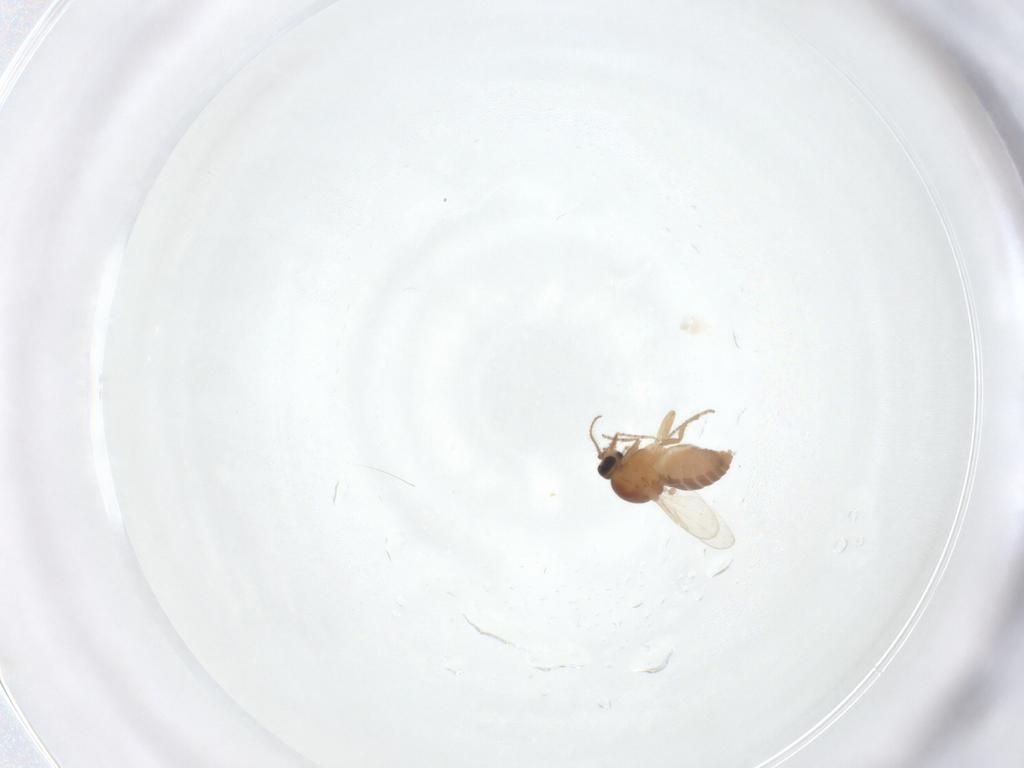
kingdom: Animalia
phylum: Arthropoda
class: Insecta
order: Diptera
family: Ceratopogonidae
